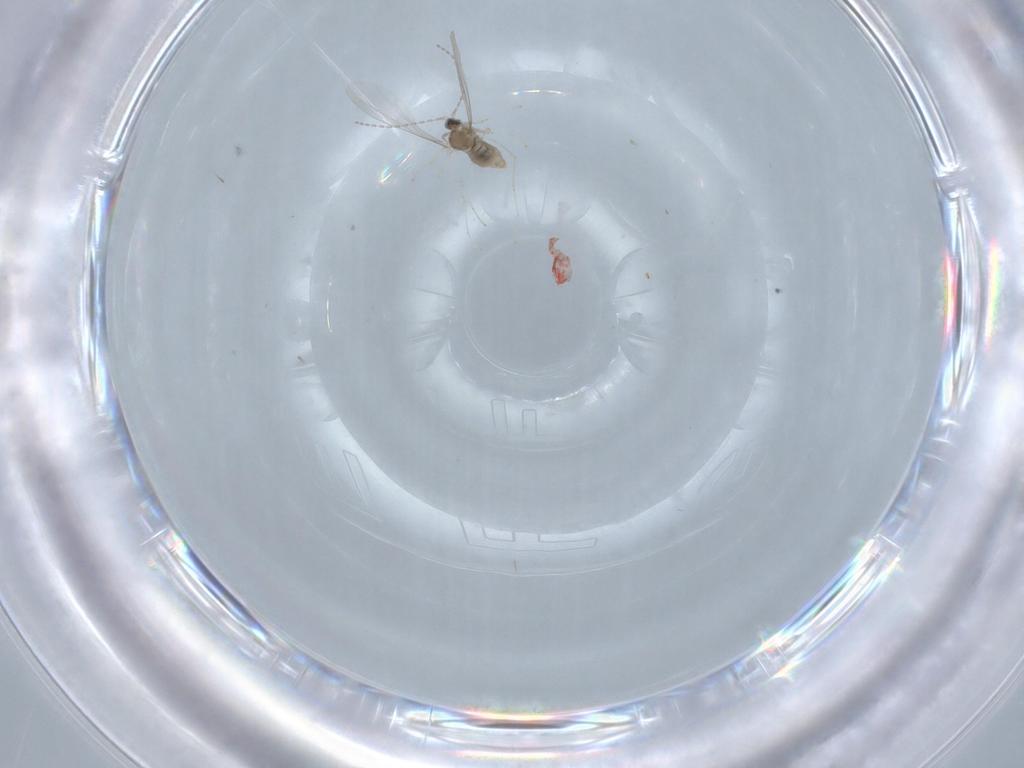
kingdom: Animalia
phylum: Arthropoda
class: Insecta
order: Diptera
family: Cecidomyiidae
